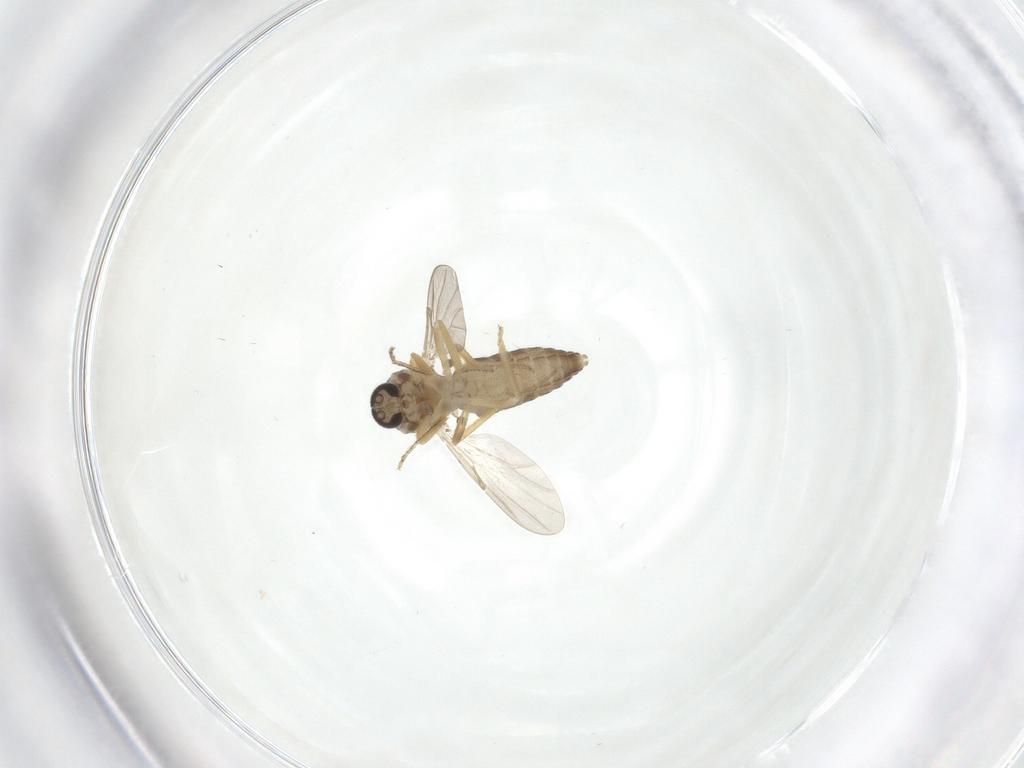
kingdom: Animalia
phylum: Arthropoda
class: Insecta
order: Diptera
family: Ceratopogonidae
